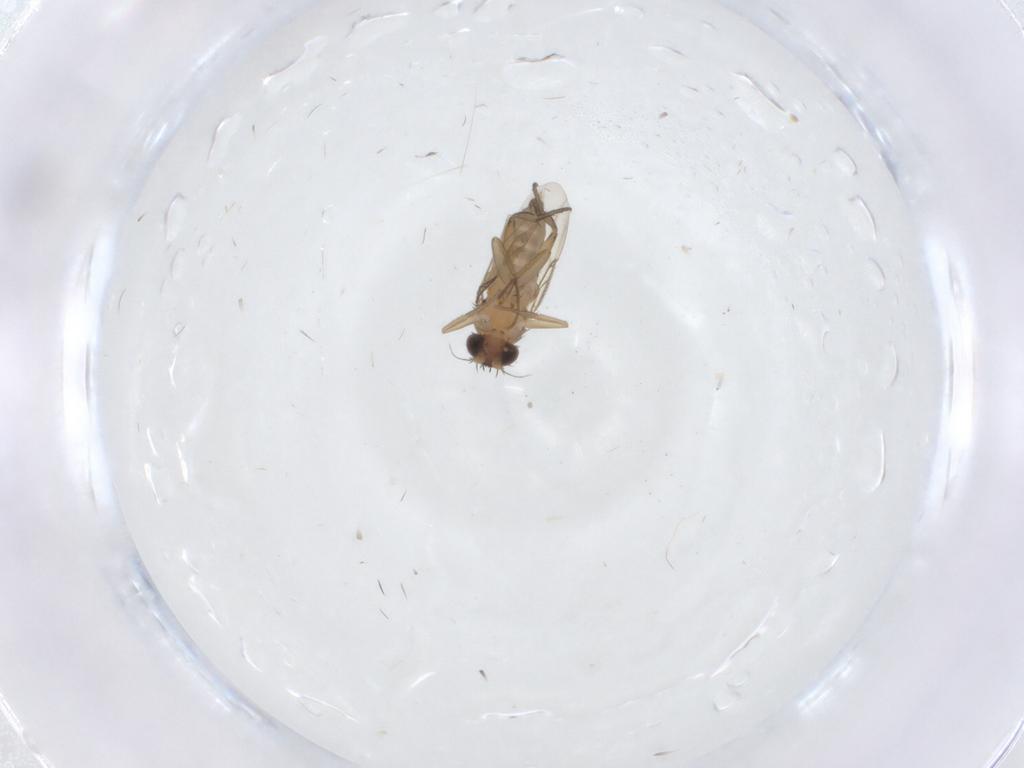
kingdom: Animalia
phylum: Arthropoda
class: Insecta
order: Diptera
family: Phoridae
